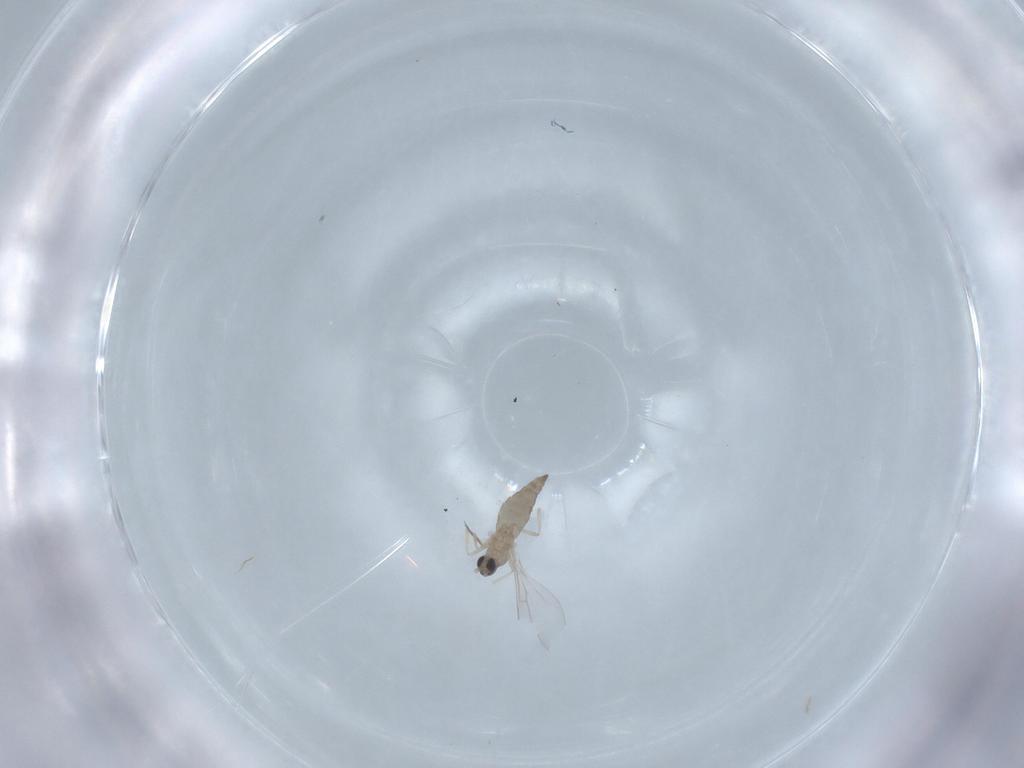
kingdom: Animalia
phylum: Arthropoda
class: Insecta
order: Diptera
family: Cecidomyiidae
